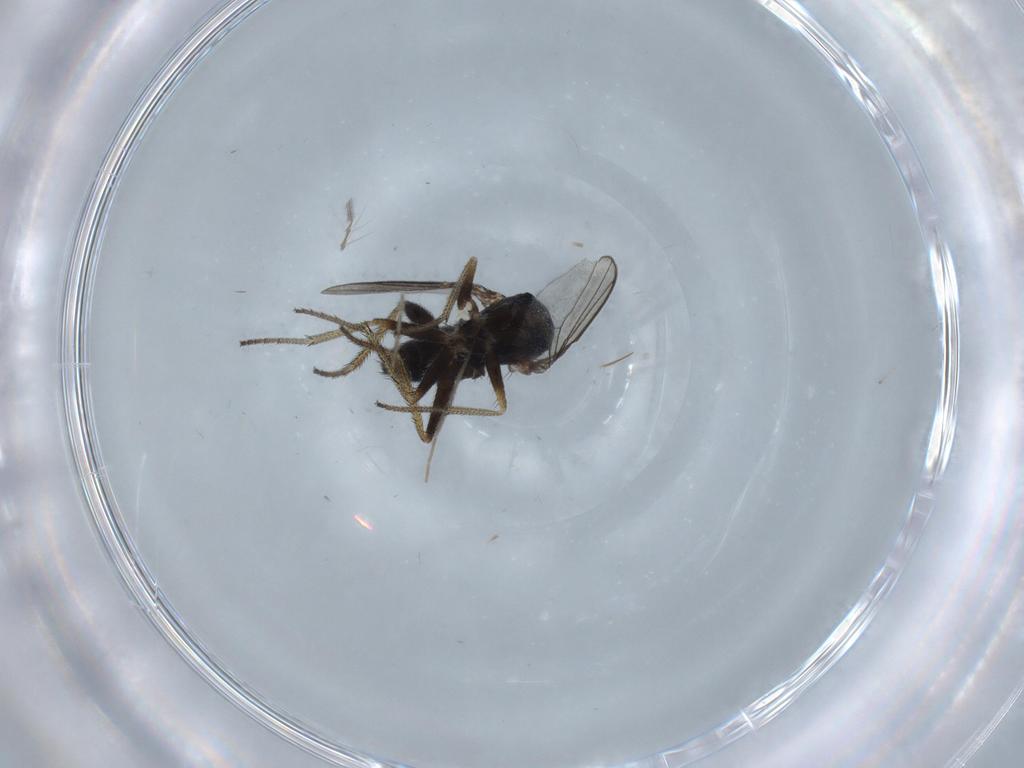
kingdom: Animalia
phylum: Arthropoda
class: Insecta
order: Diptera
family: Chironomidae
